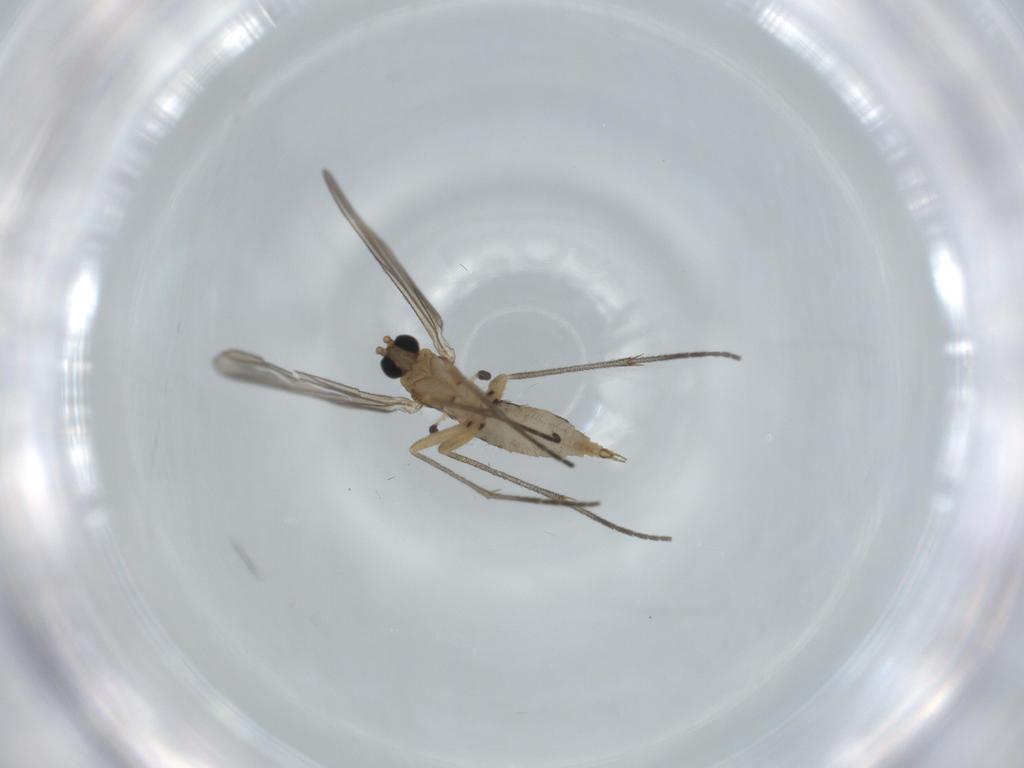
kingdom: Animalia
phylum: Arthropoda
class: Insecta
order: Diptera
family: Sciaridae
